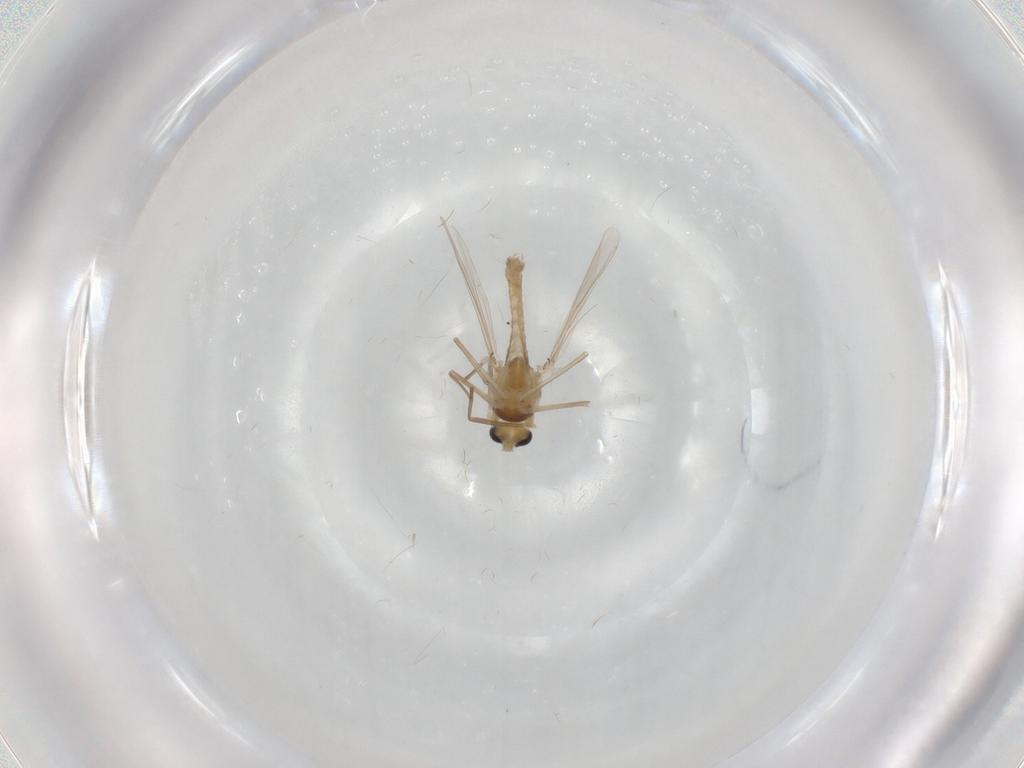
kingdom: Animalia
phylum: Arthropoda
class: Insecta
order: Diptera
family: Chironomidae
